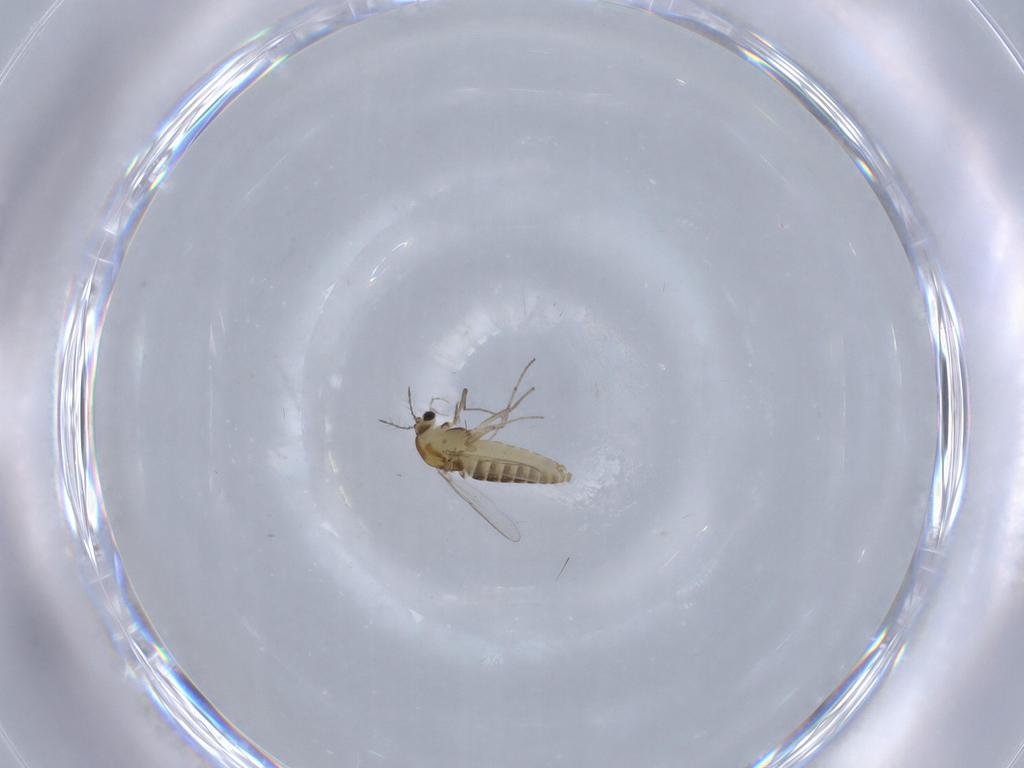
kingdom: Animalia
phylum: Arthropoda
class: Insecta
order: Diptera
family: Chironomidae
